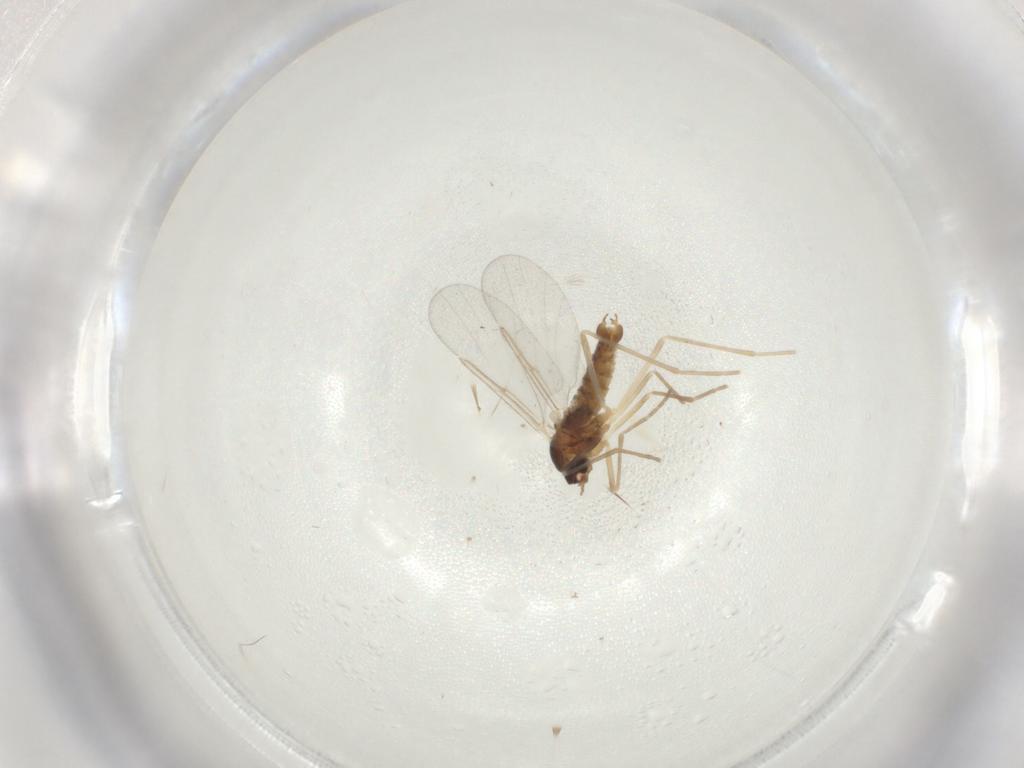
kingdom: Animalia
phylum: Arthropoda
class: Insecta
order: Diptera
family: Cecidomyiidae
